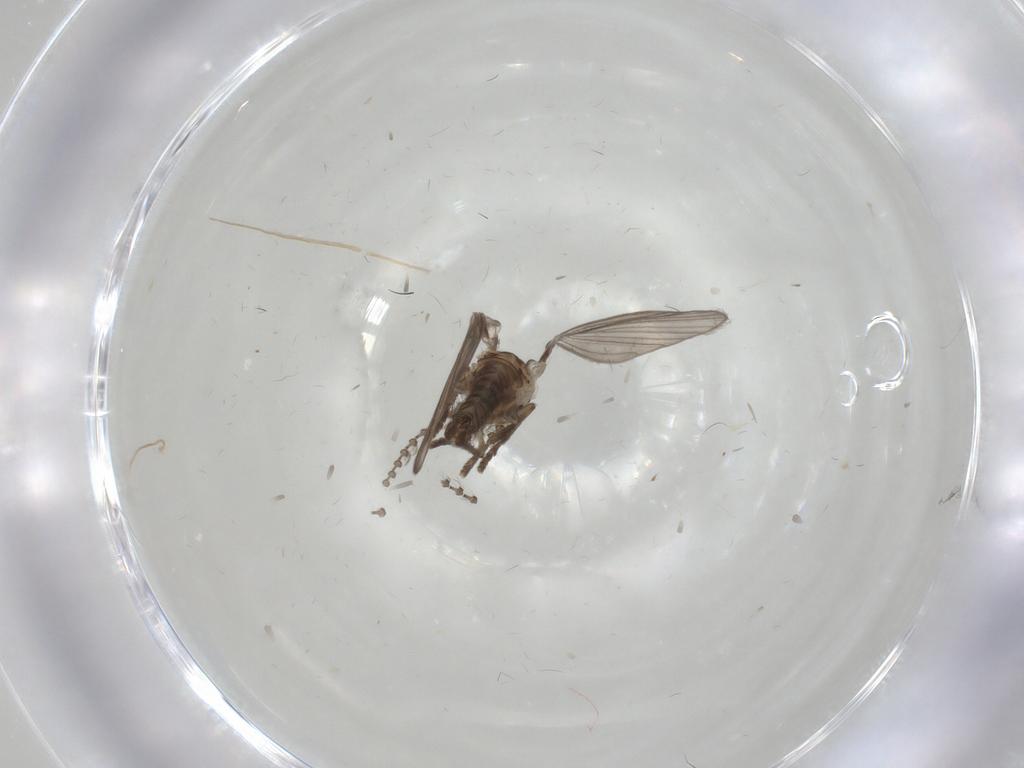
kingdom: Animalia
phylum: Arthropoda
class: Insecta
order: Diptera
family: Psychodidae
